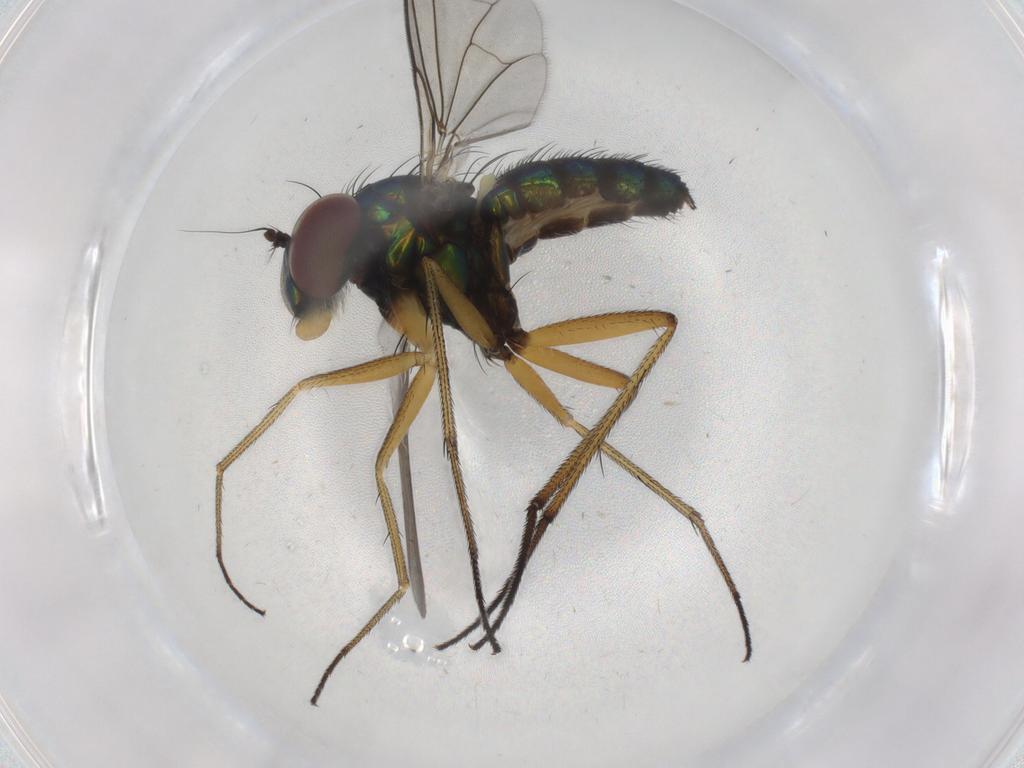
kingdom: Animalia
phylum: Arthropoda
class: Insecta
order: Diptera
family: Dolichopodidae
